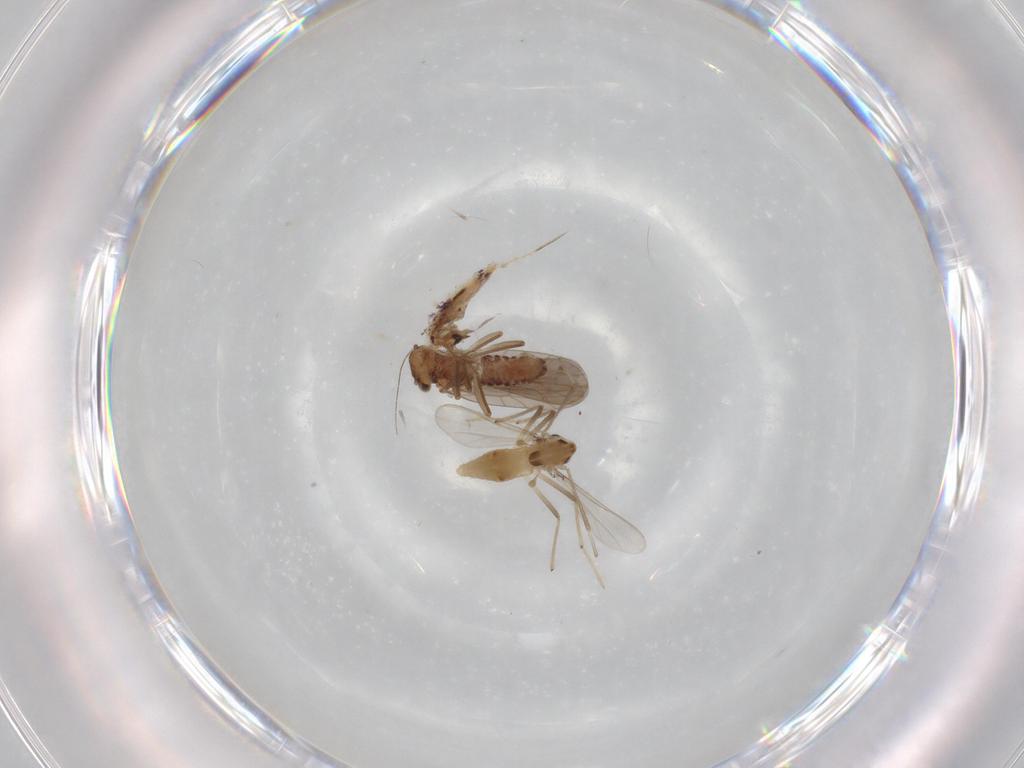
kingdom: Animalia
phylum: Arthropoda
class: Insecta
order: Diptera
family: Chironomidae
